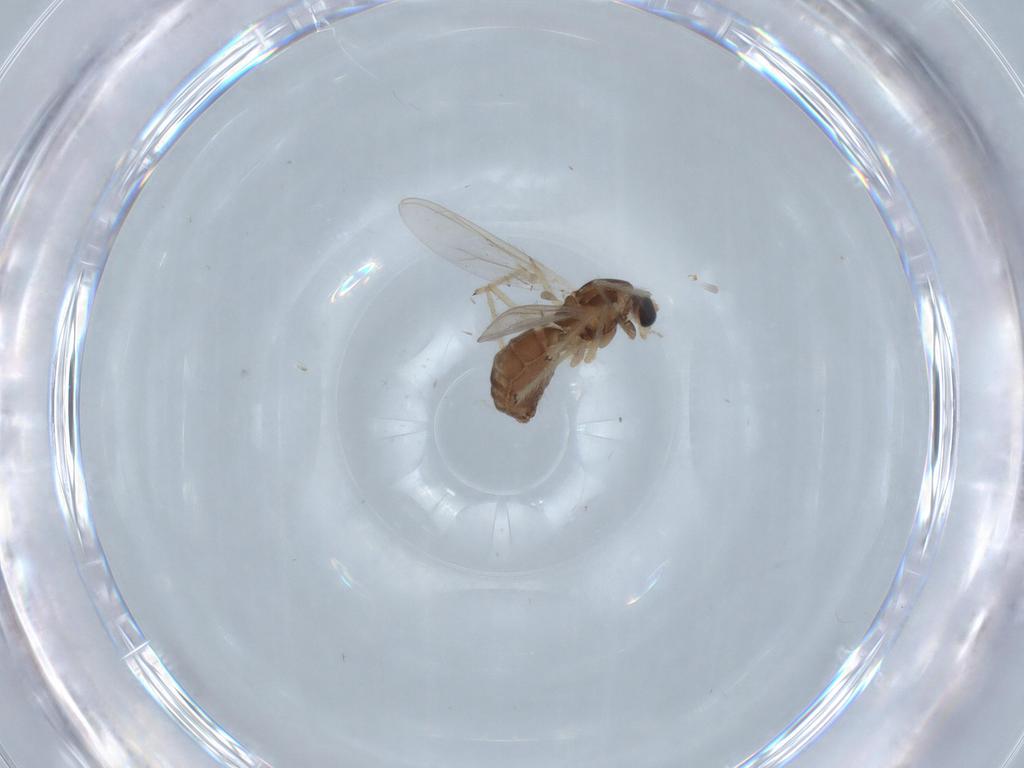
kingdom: Animalia
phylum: Arthropoda
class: Insecta
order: Diptera
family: Sciaridae
